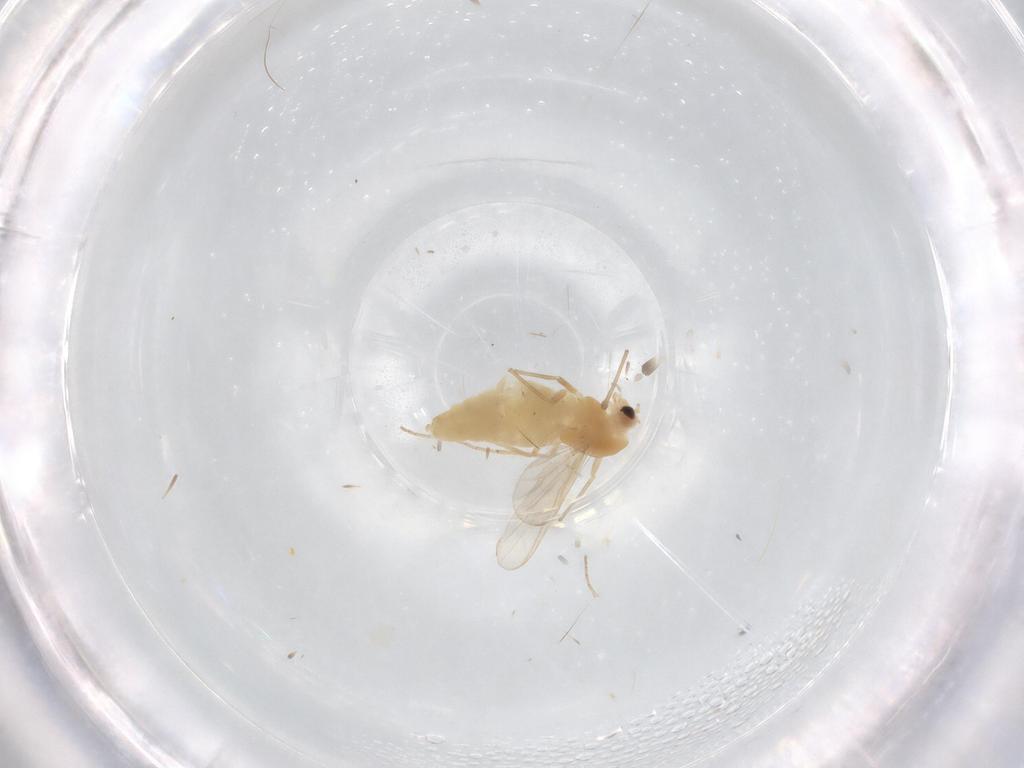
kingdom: Animalia
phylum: Arthropoda
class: Insecta
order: Diptera
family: Chironomidae
